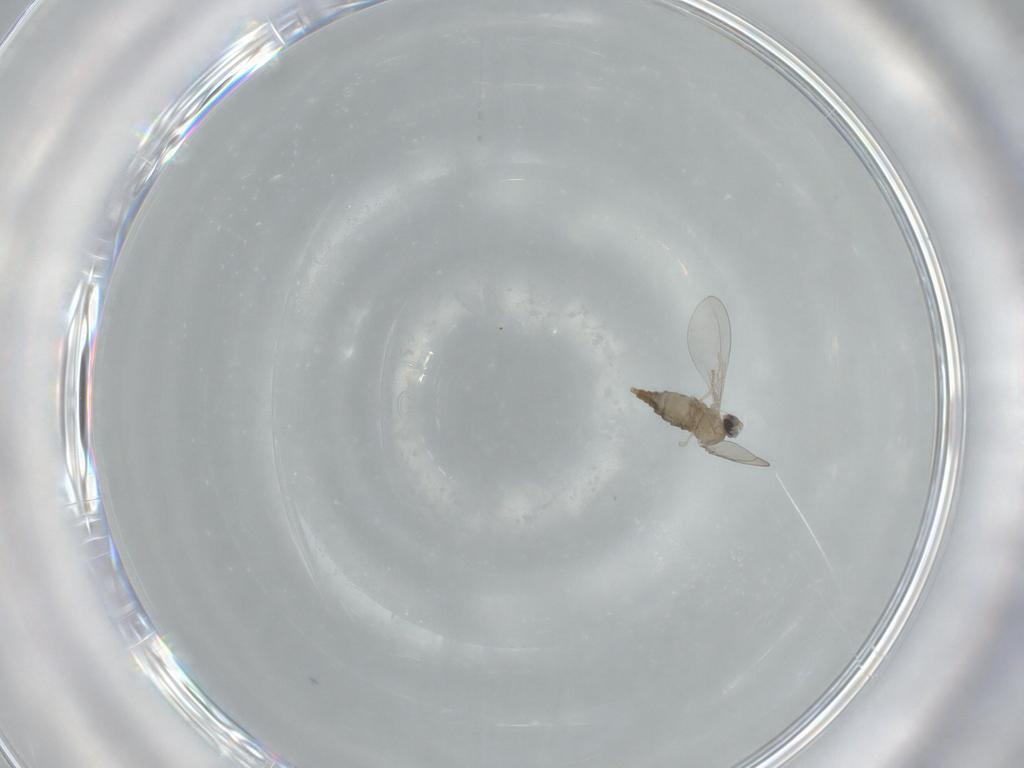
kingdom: Animalia
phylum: Arthropoda
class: Insecta
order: Diptera
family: Cecidomyiidae
